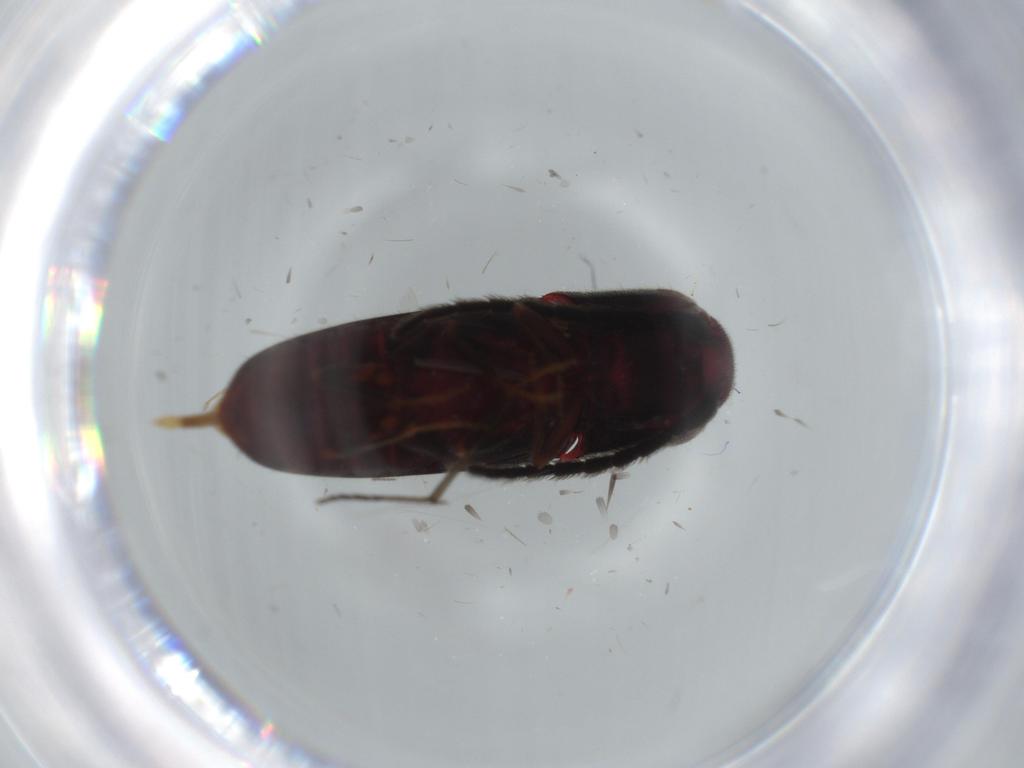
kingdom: Animalia
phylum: Arthropoda
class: Insecta
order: Coleoptera
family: Eucnemidae
